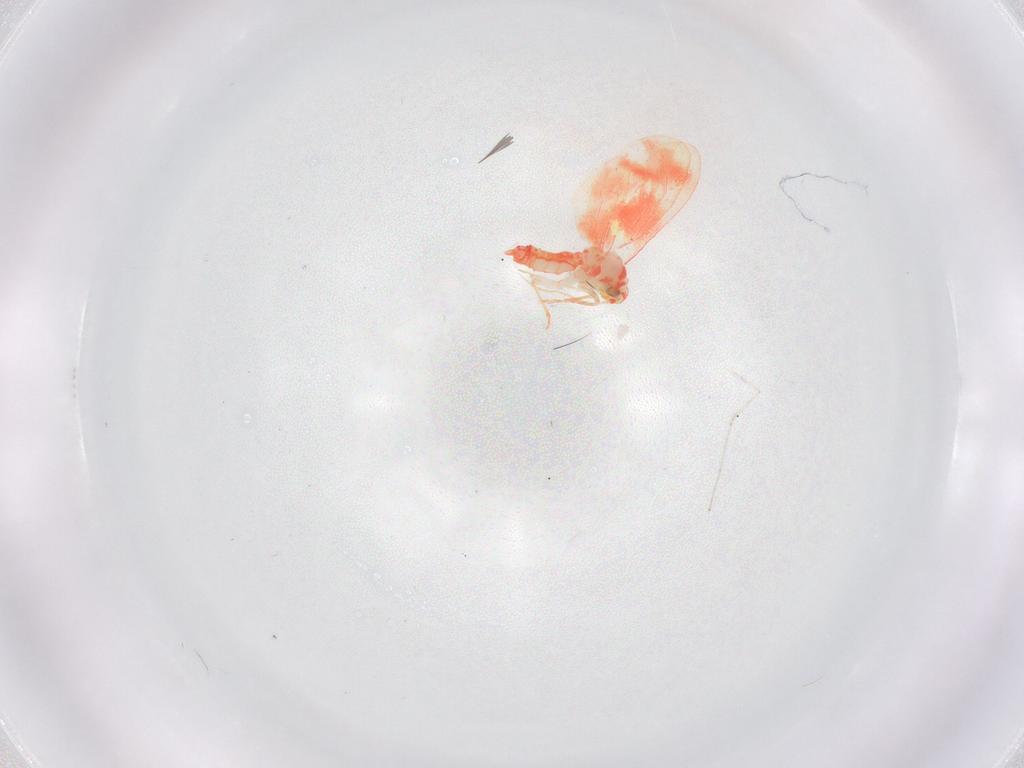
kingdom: Animalia
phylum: Arthropoda
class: Insecta
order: Hemiptera
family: Aleyrodidae
